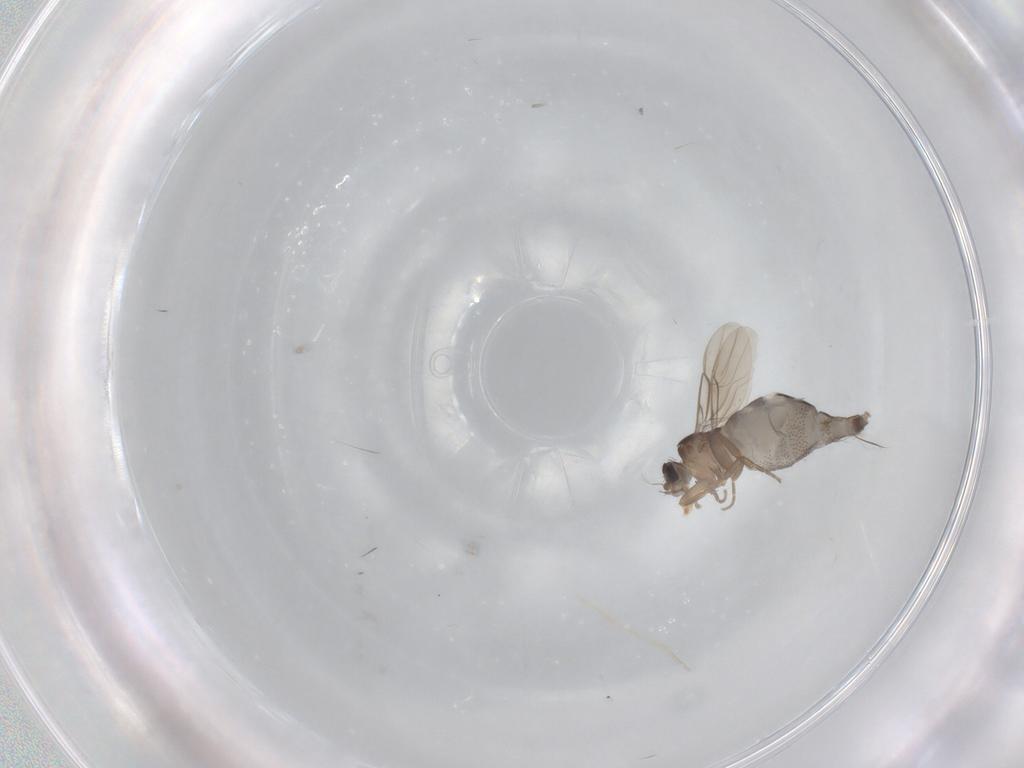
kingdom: Animalia
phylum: Arthropoda
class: Insecta
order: Diptera
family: Phoridae
